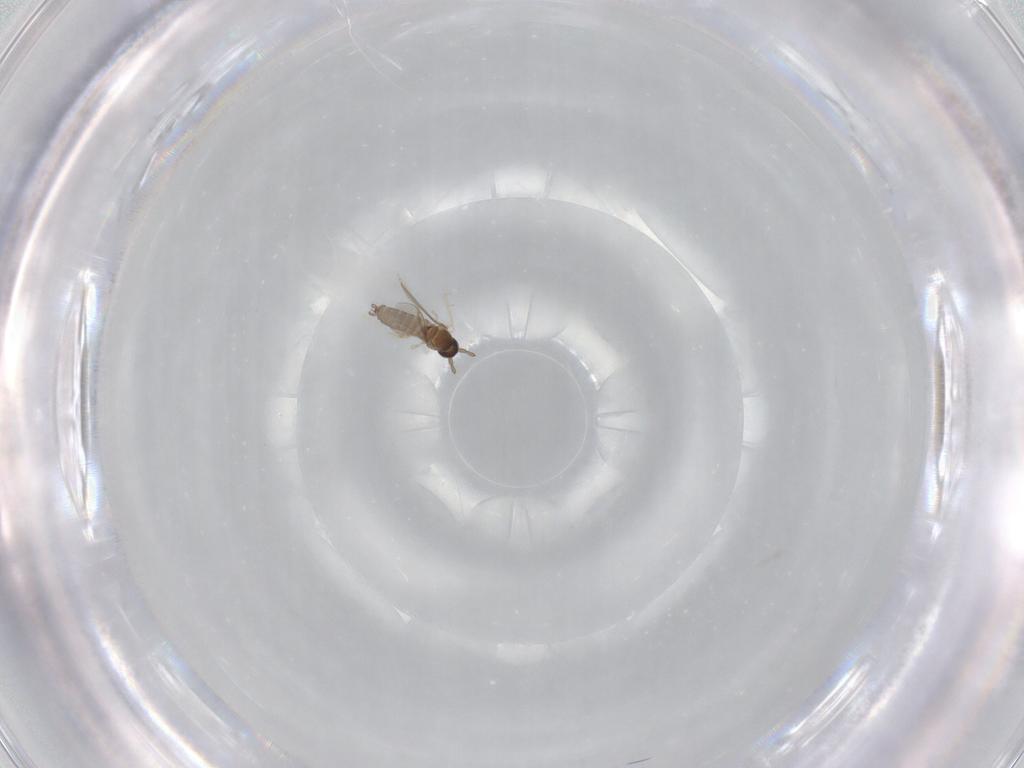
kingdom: Animalia
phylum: Arthropoda
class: Insecta
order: Diptera
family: Cecidomyiidae
